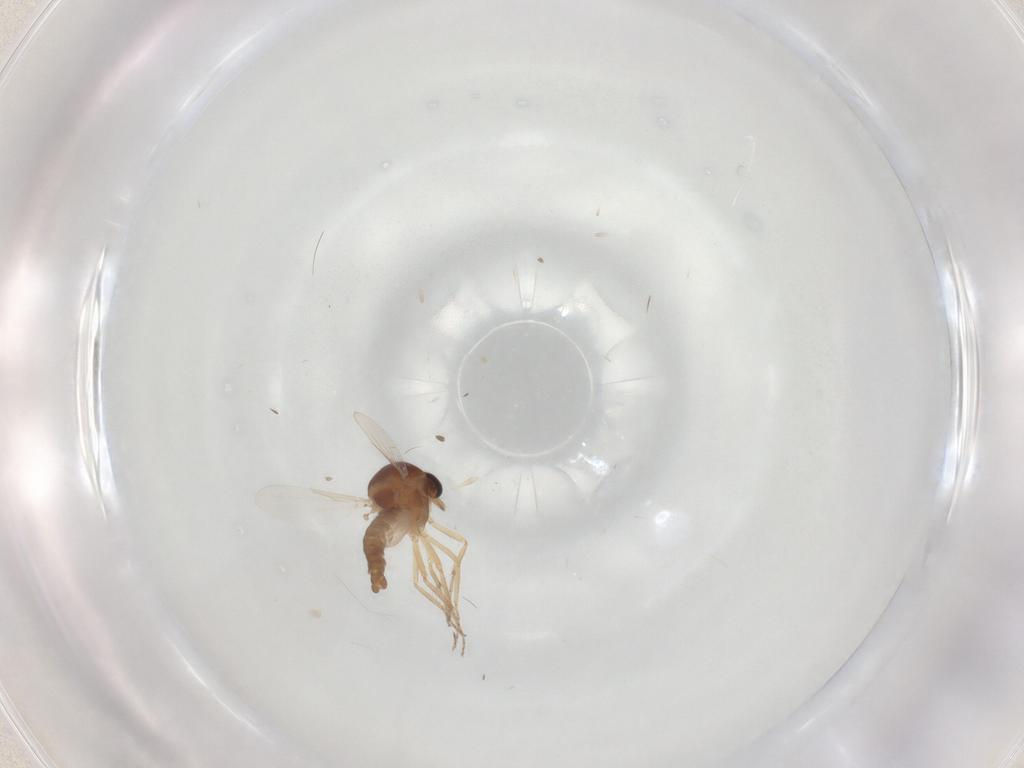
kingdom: Animalia
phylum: Arthropoda
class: Insecta
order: Diptera
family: Ceratopogonidae
